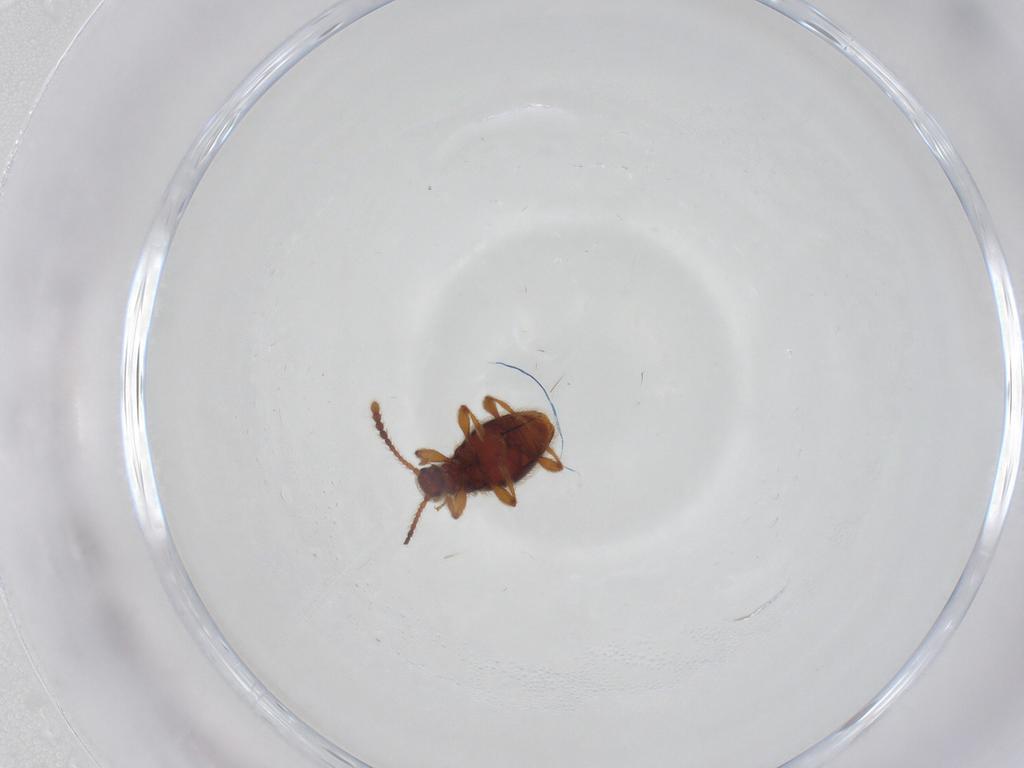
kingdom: Animalia
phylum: Arthropoda
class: Insecta
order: Coleoptera
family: Staphylinidae
